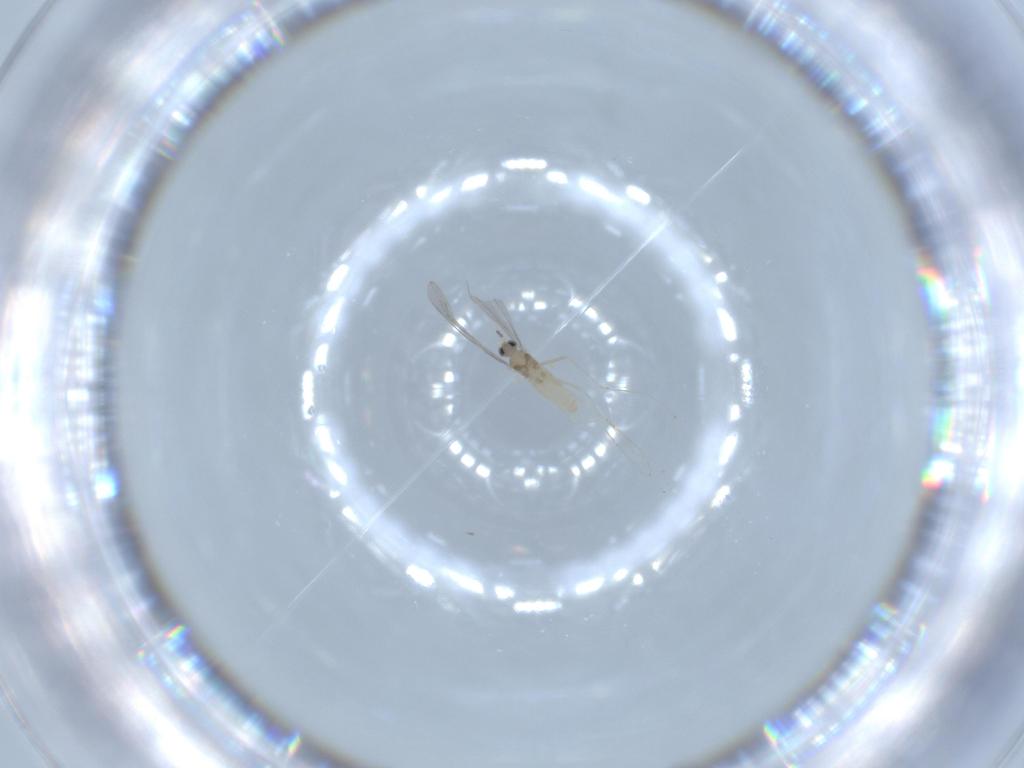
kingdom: Animalia
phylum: Arthropoda
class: Insecta
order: Diptera
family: Cecidomyiidae
